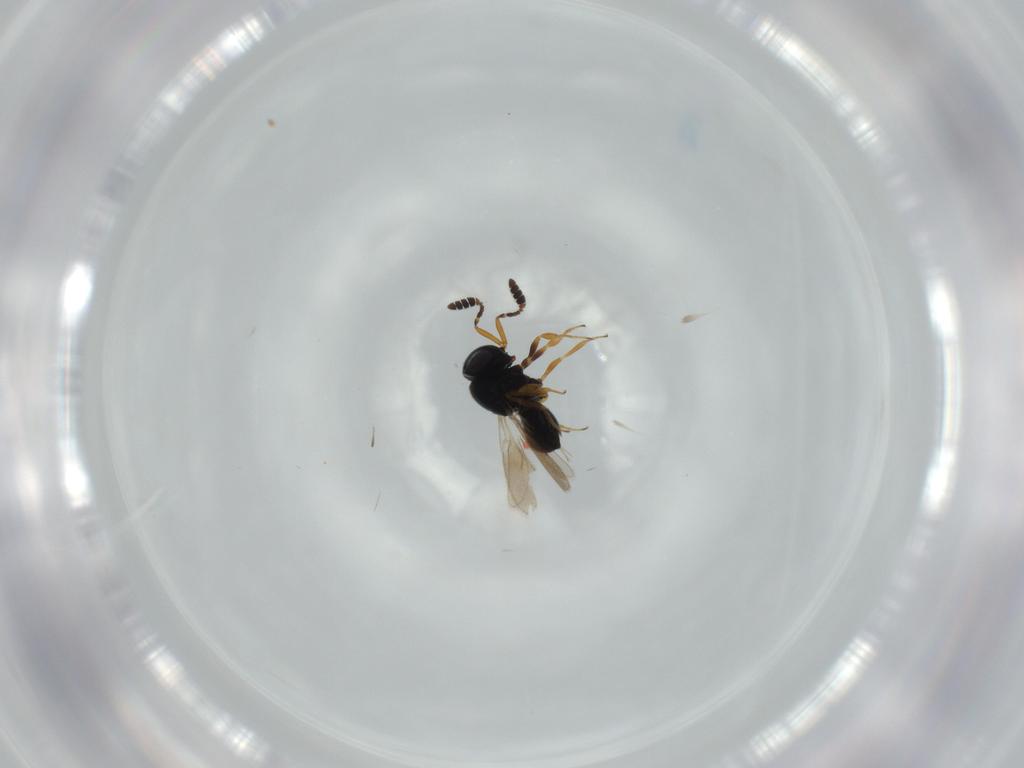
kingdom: Animalia
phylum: Arthropoda
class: Insecta
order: Hymenoptera
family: Scelionidae
